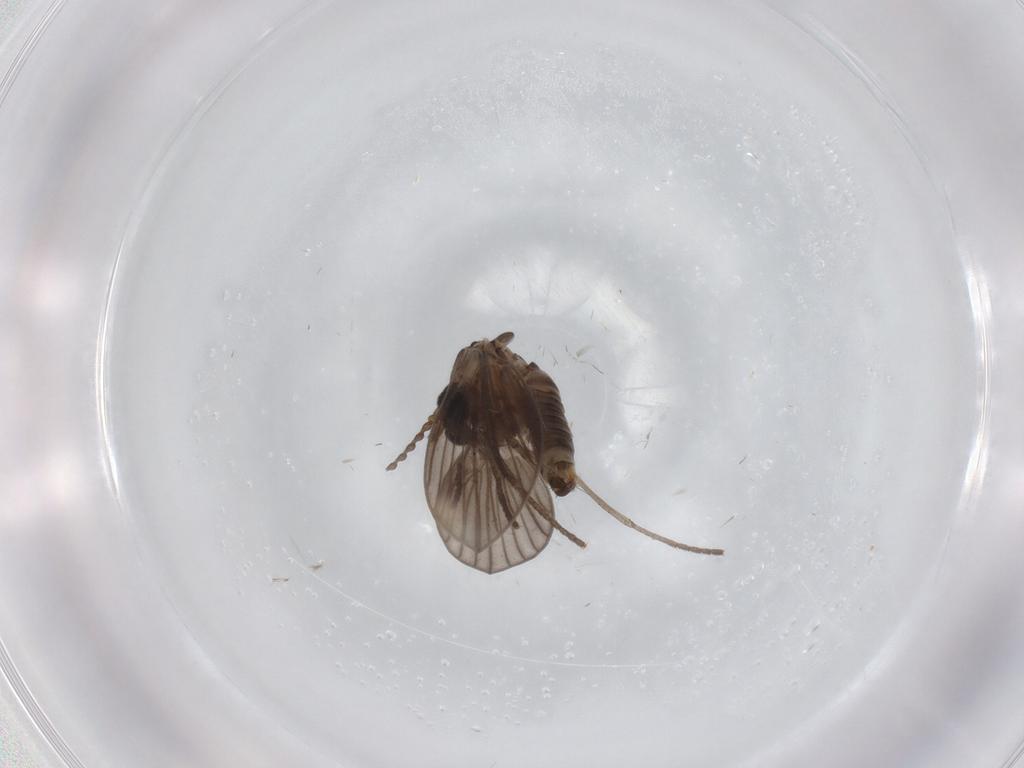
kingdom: Animalia
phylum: Arthropoda
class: Insecta
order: Diptera
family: Psychodidae
